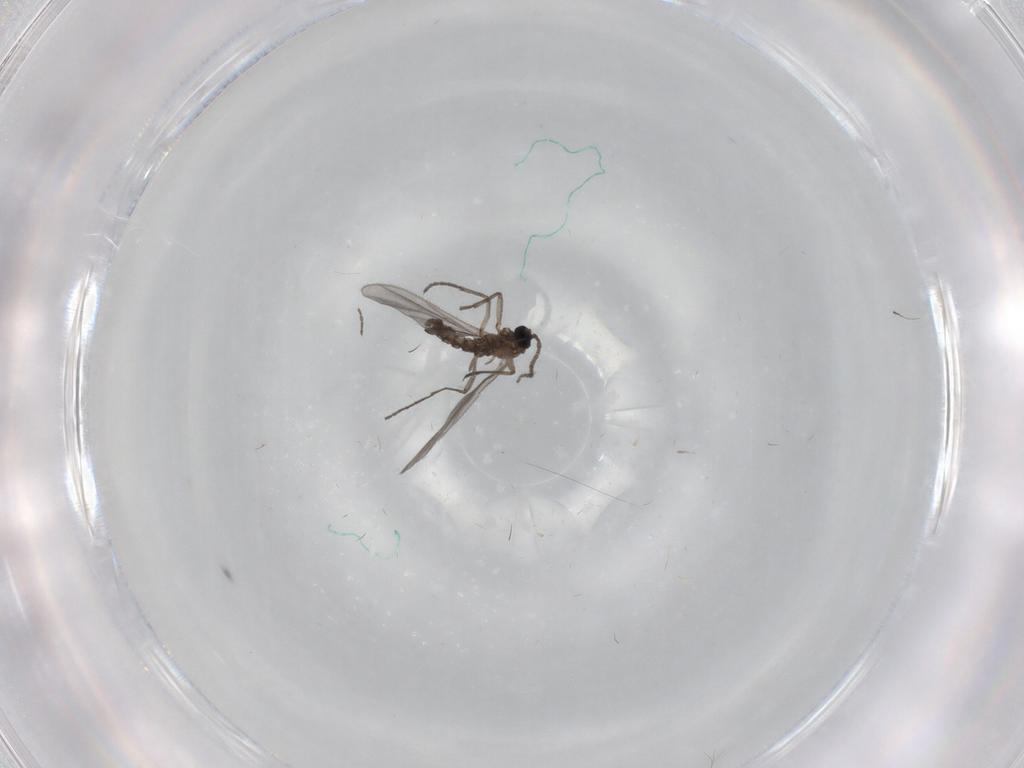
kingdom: Animalia
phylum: Arthropoda
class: Insecta
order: Diptera
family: Sciaridae
